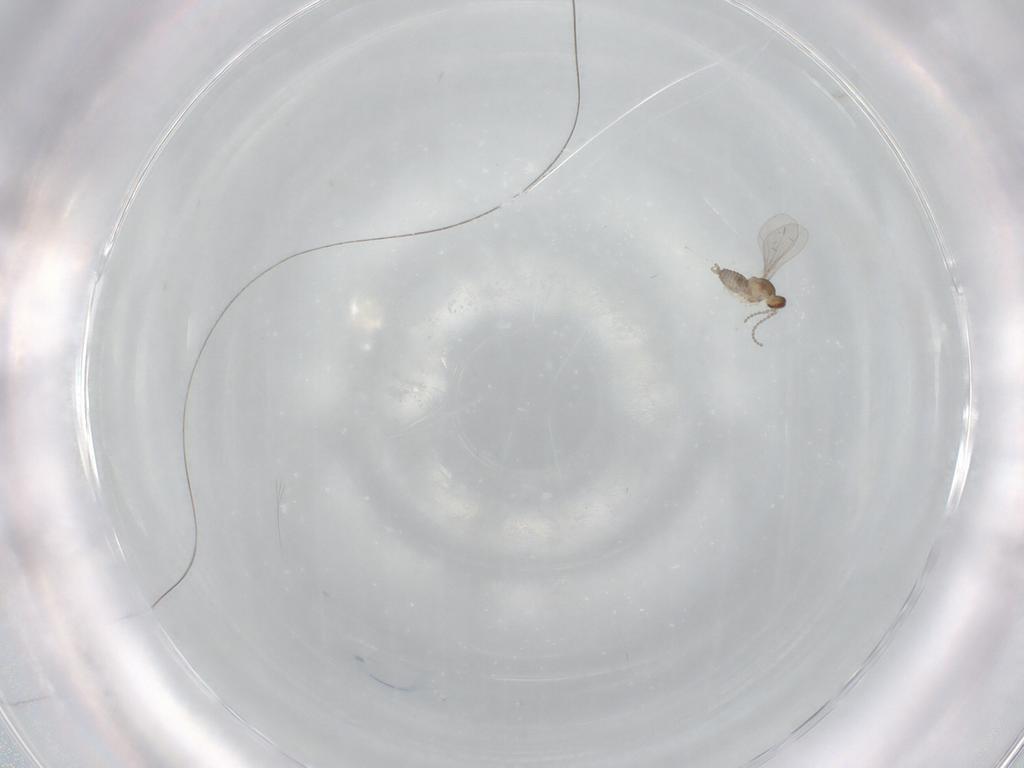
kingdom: Animalia
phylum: Arthropoda
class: Insecta
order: Diptera
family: Cecidomyiidae
